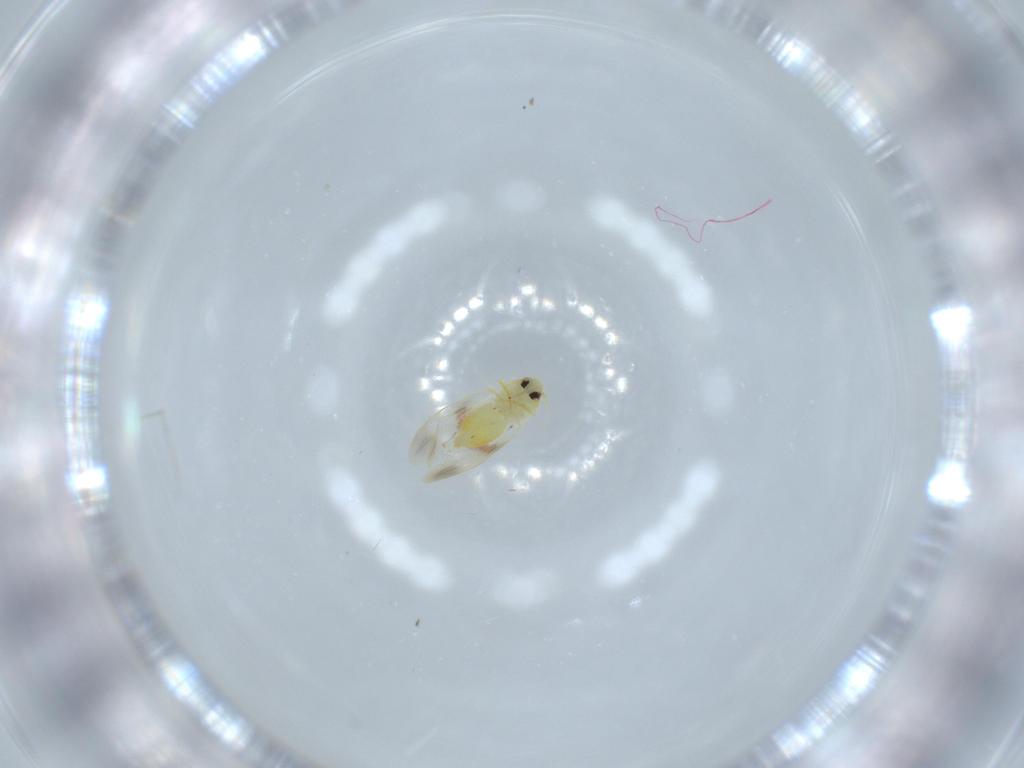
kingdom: Animalia
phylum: Arthropoda
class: Insecta
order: Hemiptera
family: Aleyrodidae
